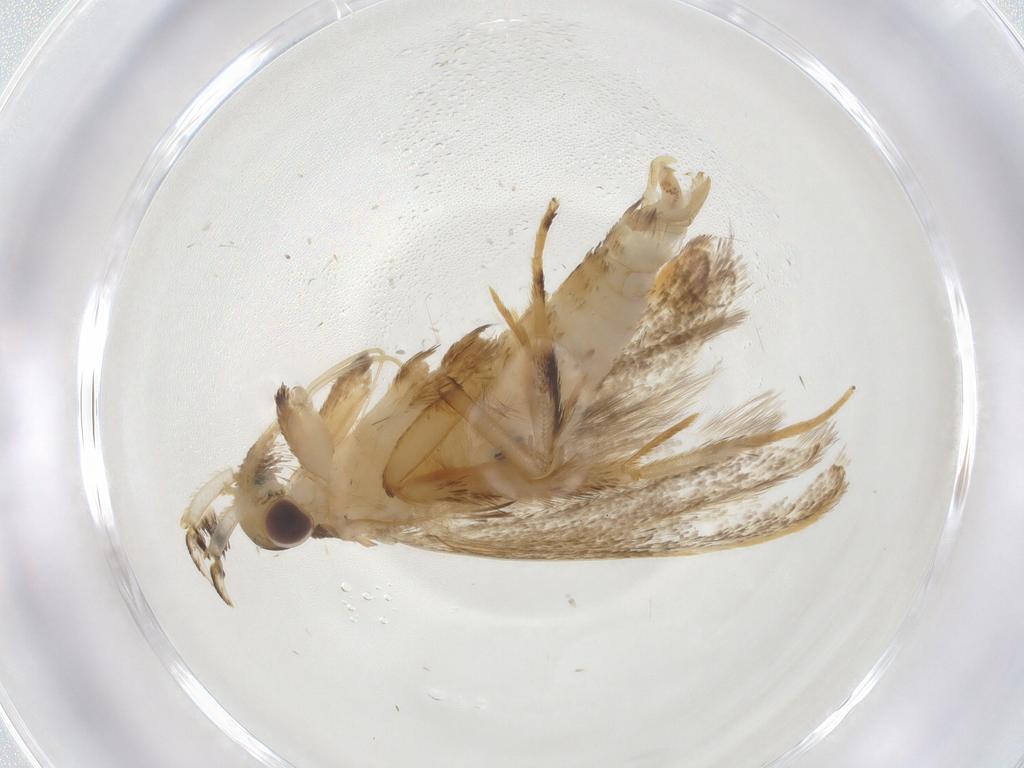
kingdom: Animalia
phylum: Arthropoda
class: Insecta
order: Lepidoptera
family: Lecithoceridae
